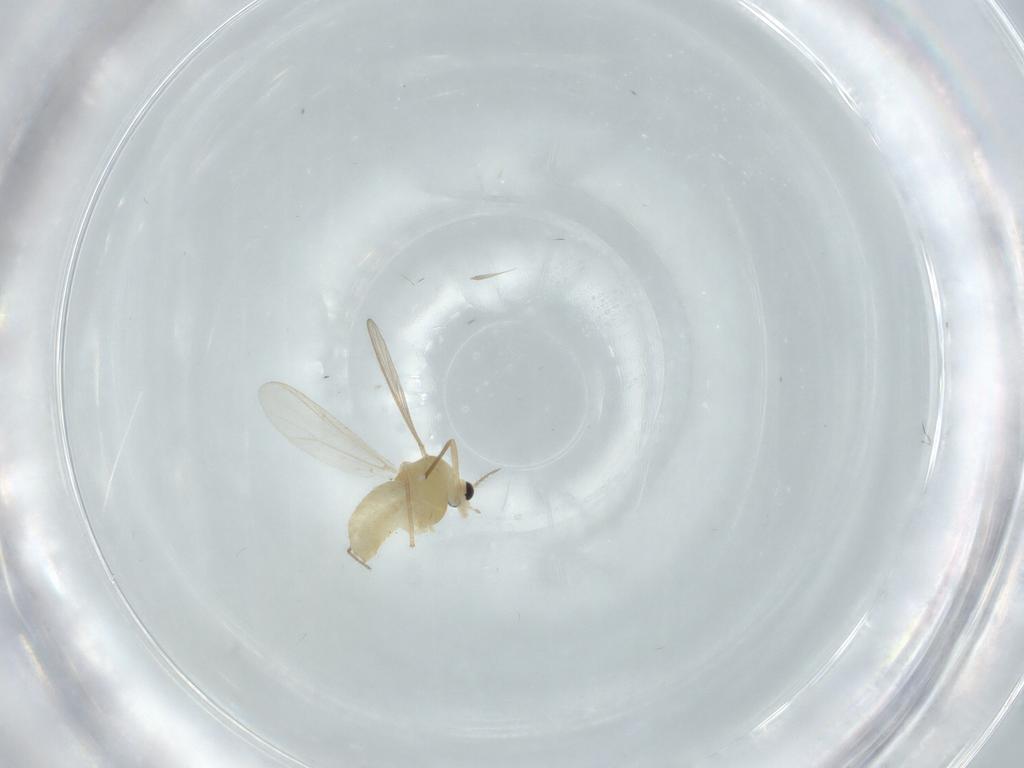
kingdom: Animalia
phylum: Arthropoda
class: Insecta
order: Diptera
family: Chironomidae
